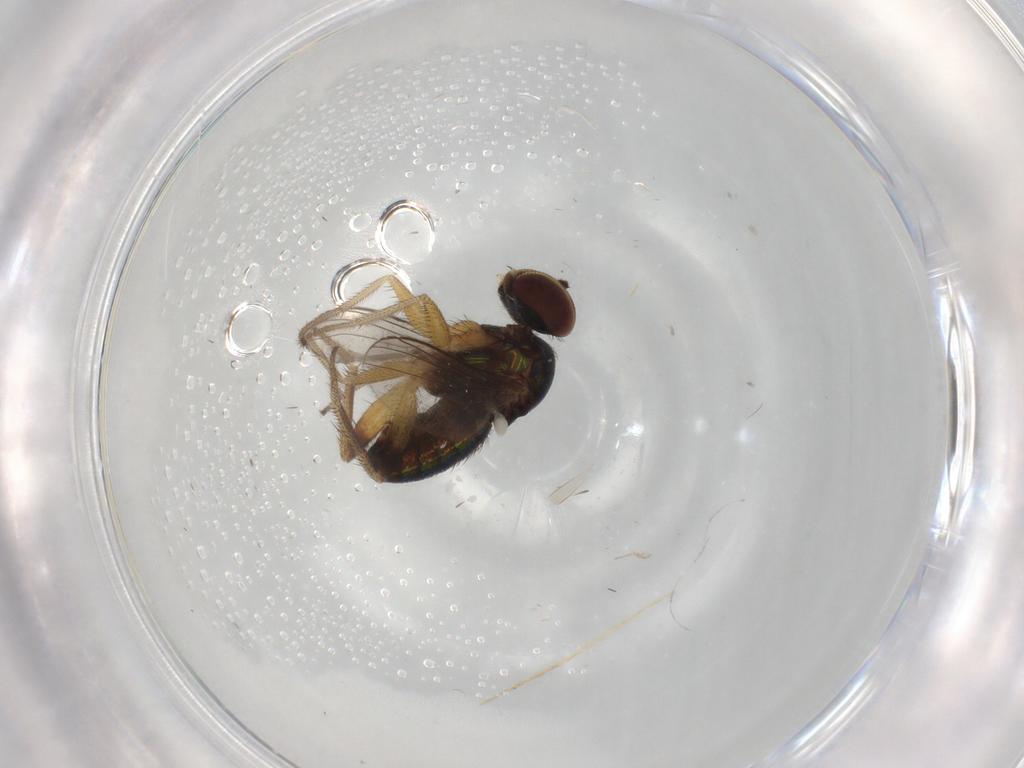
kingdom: Animalia
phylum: Arthropoda
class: Insecta
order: Diptera
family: Dolichopodidae
